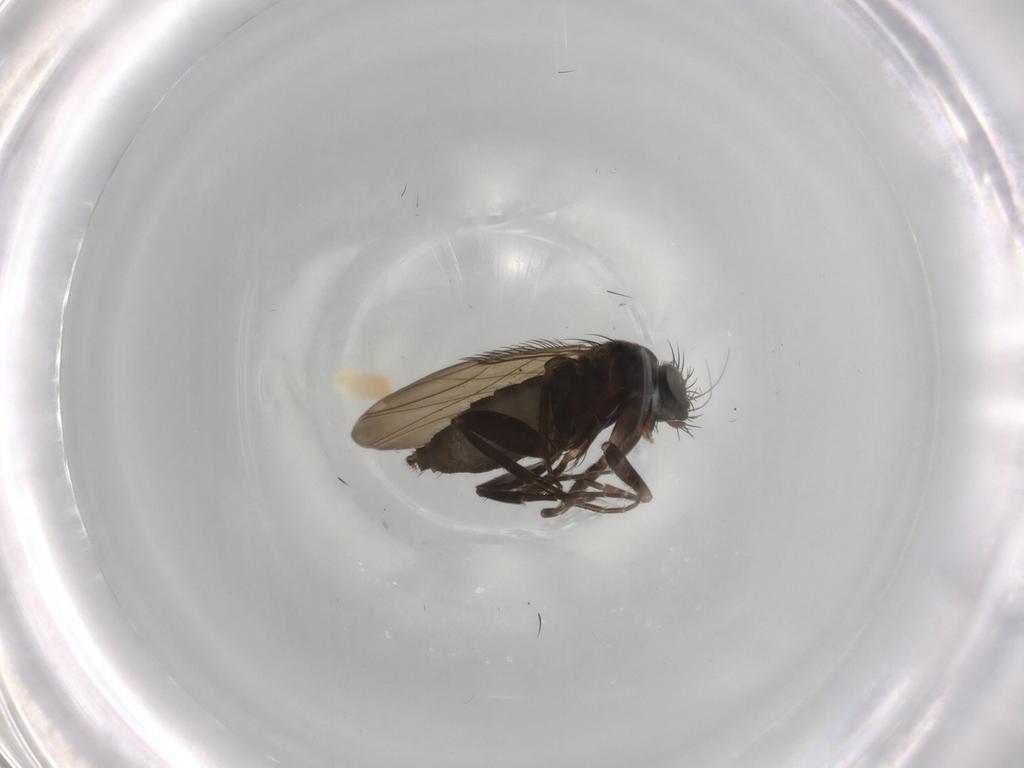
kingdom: Animalia
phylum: Arthropoda
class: Insecta
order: Diptera
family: Phoridae
